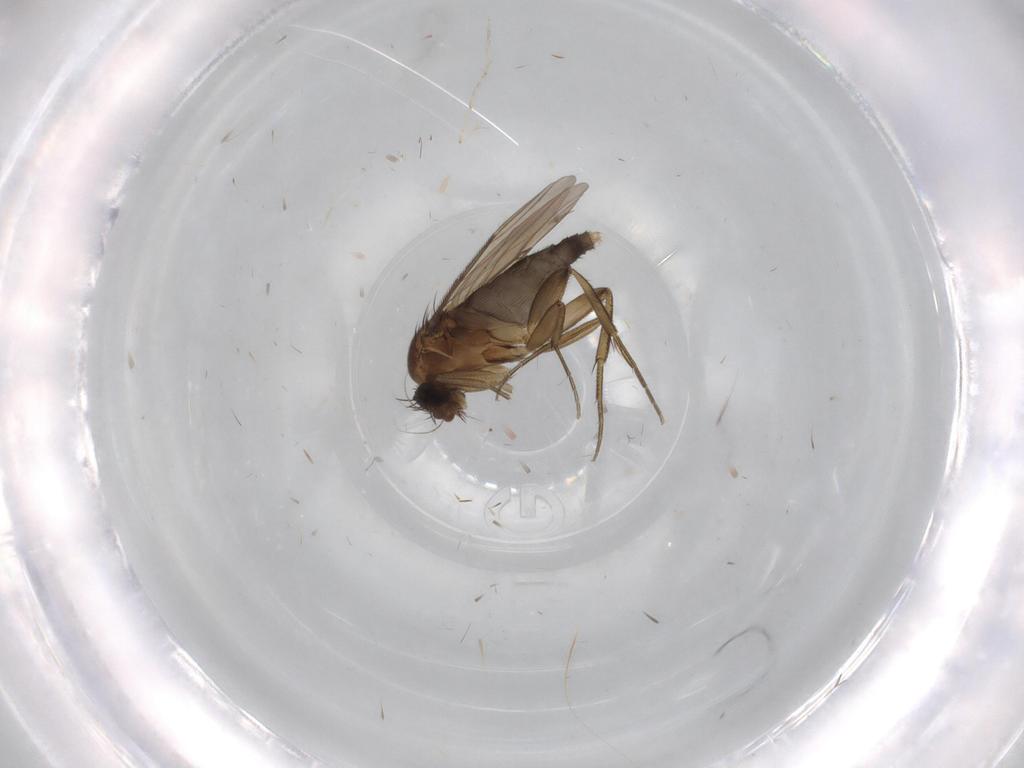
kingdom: Animalia
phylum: Arthropoda
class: Insecta
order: Diptera
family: Phoridae
